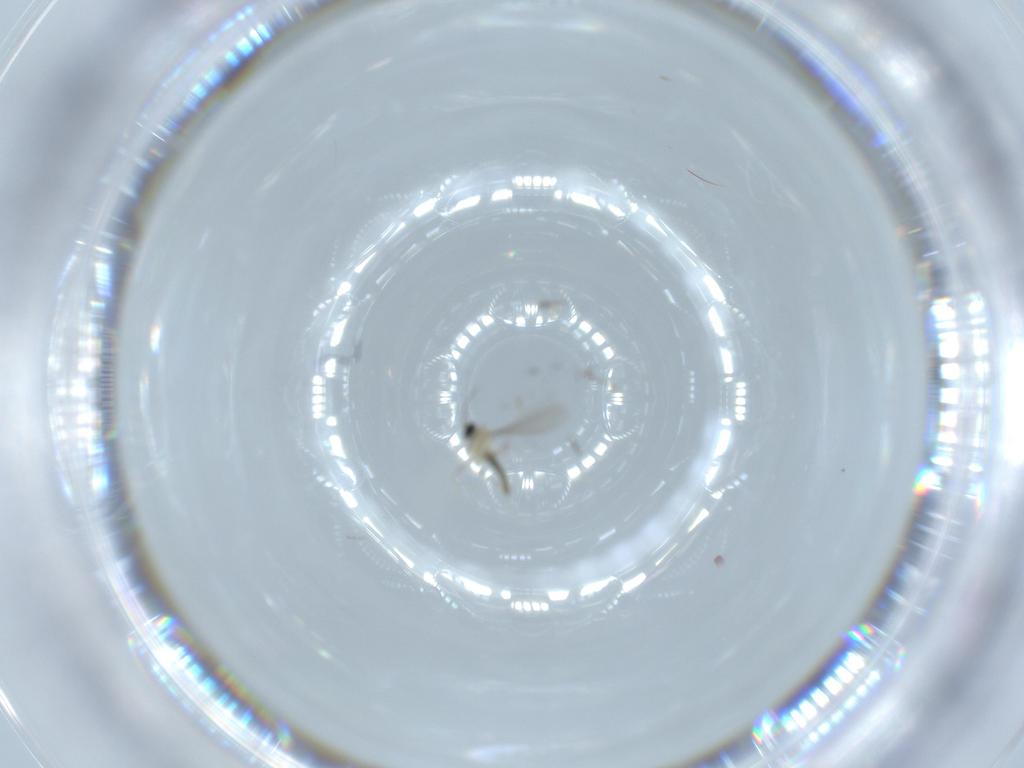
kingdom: Animalia
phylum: Arthropoda
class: Insecta
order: Diptera
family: Cecidomyiidae
